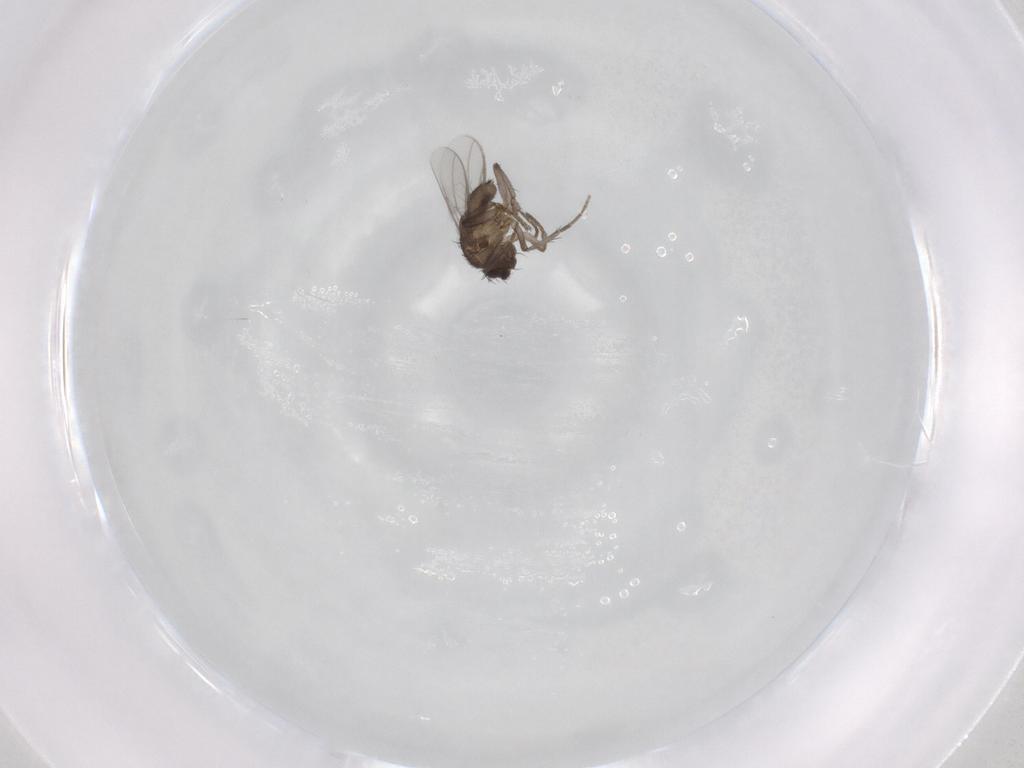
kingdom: Animalia
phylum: Arthropoda
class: Insecta
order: Diptera
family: Sphaeroceridae
